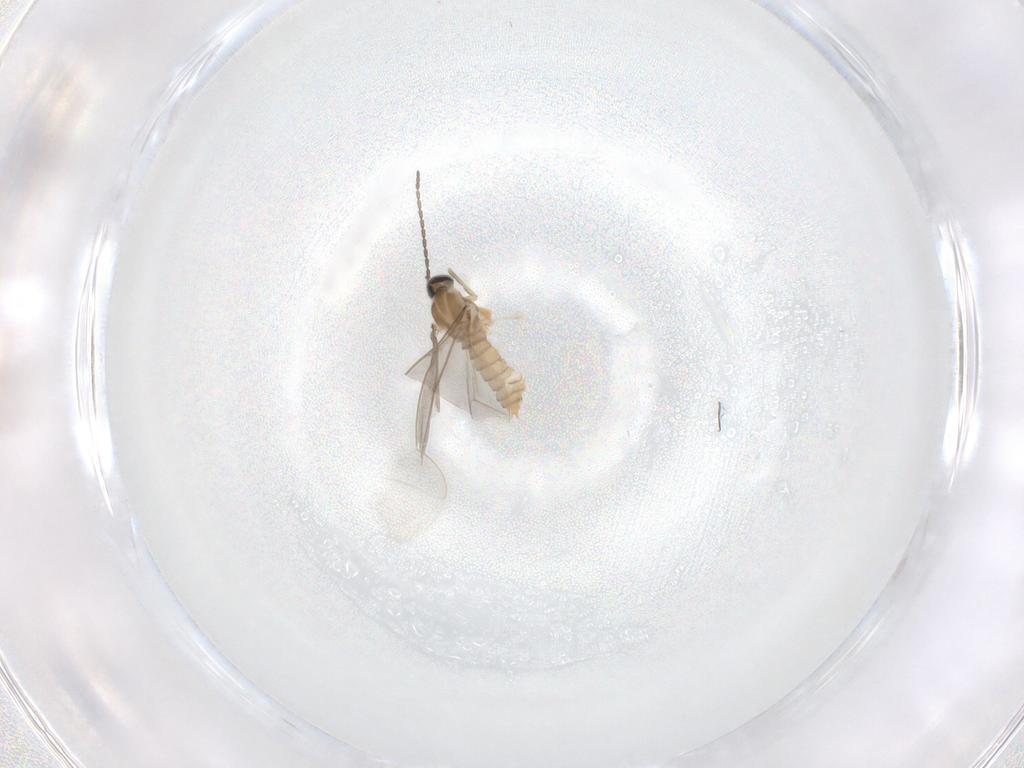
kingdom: Animalia
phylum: Arthropoda
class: Insecta
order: Diptera
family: Cecidomyiidae
